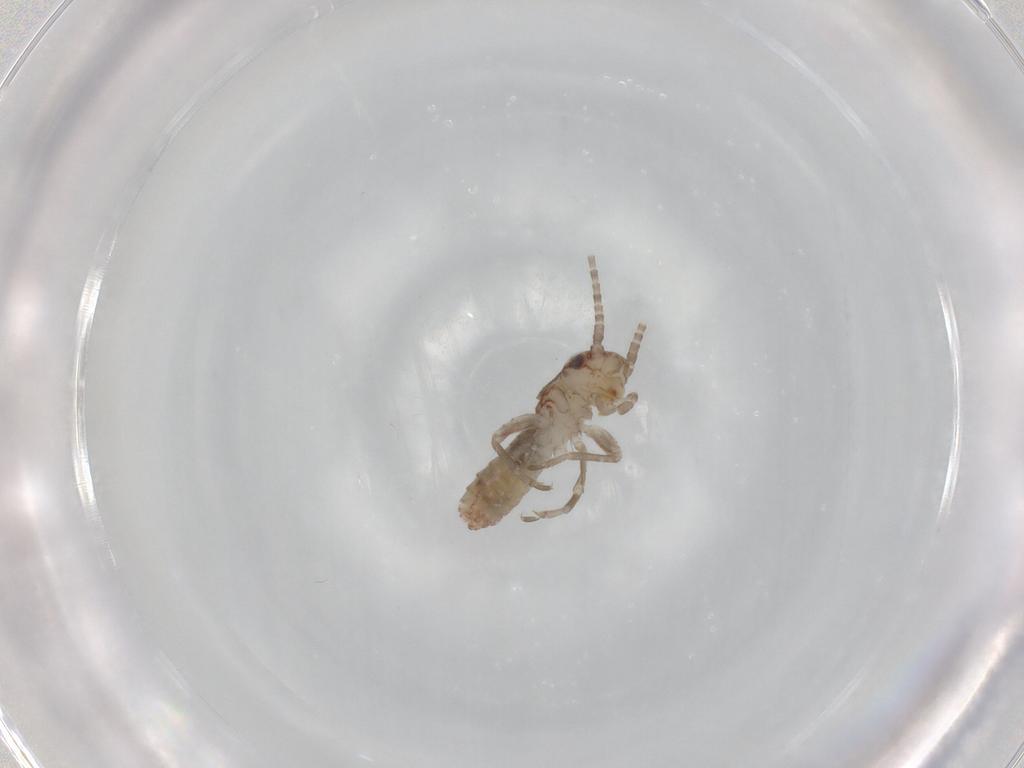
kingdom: Animalia
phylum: Arthropoda
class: Insecta
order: Orthoptera
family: Mogoplistidae
